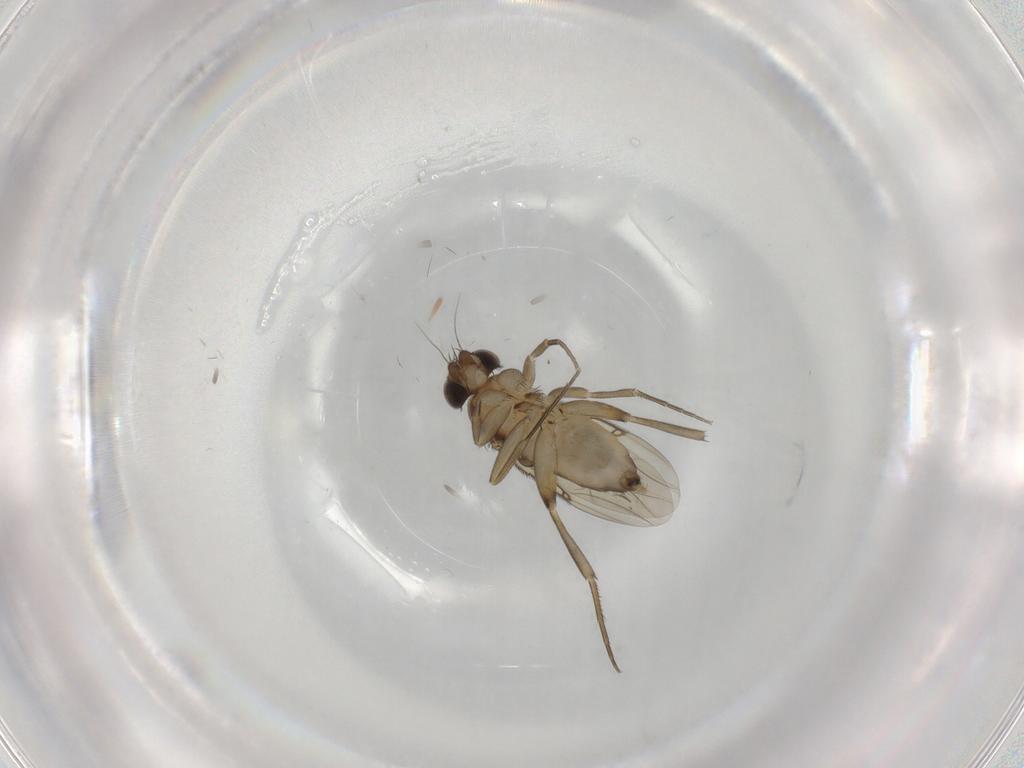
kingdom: Animalia
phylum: Arthropoda
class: Insecta
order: Diptera
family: Phoridae
